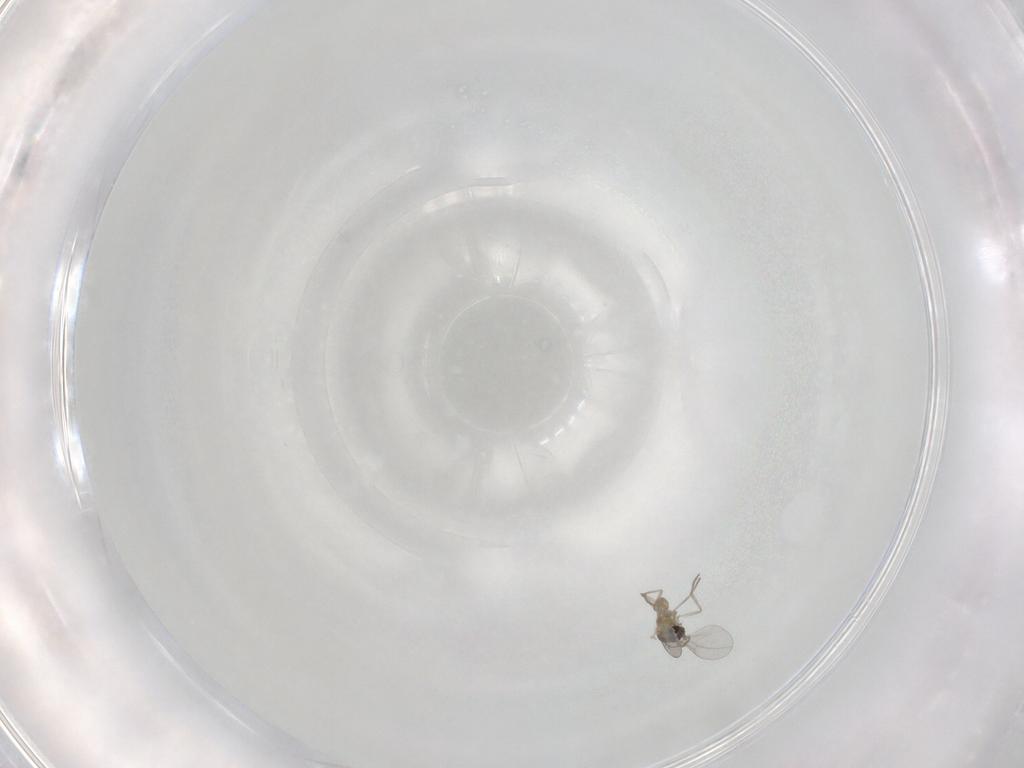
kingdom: Animalia
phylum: Arthropoda
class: Insecta
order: Diptera
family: Cecidomyiidae
